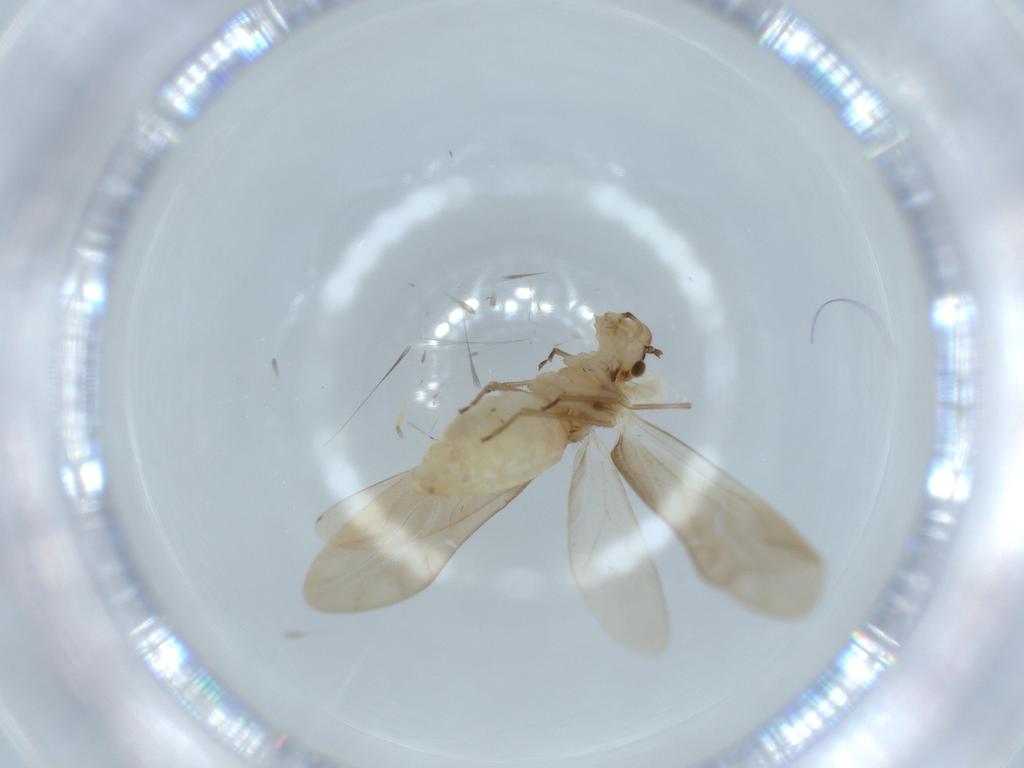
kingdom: Animalia
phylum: Arthropoda
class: Insecta
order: Psocodea
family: Caeciliusidae
